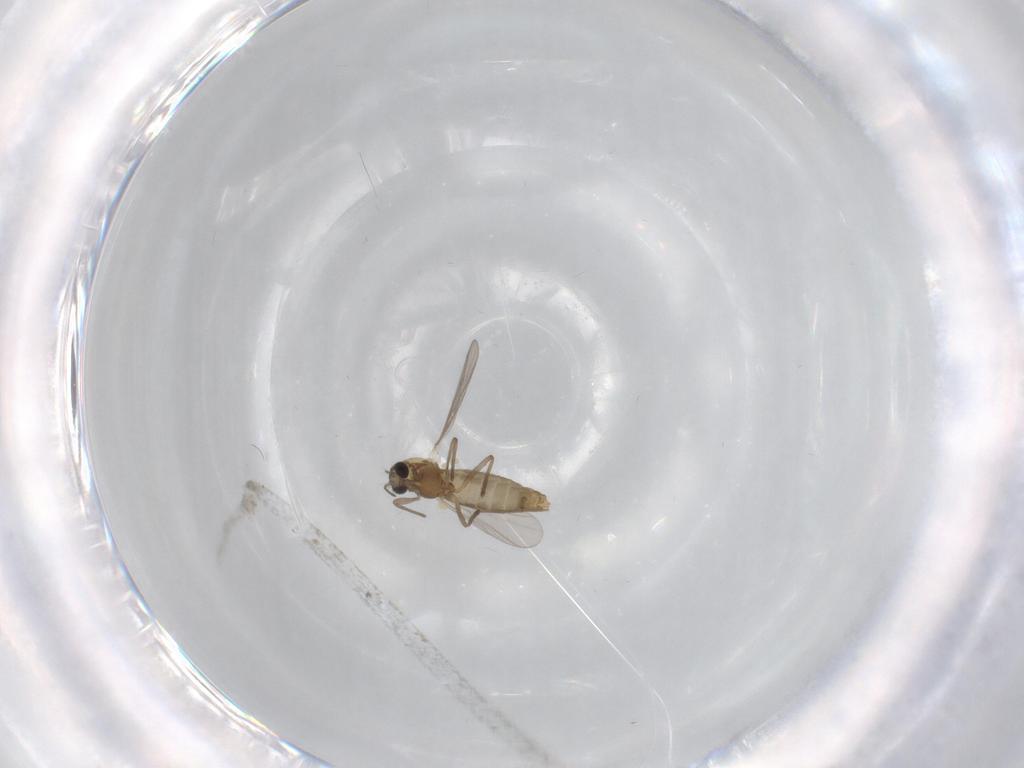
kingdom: Animalia
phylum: Arthropoda
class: Insecta
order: Diptera
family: Chironomidae
